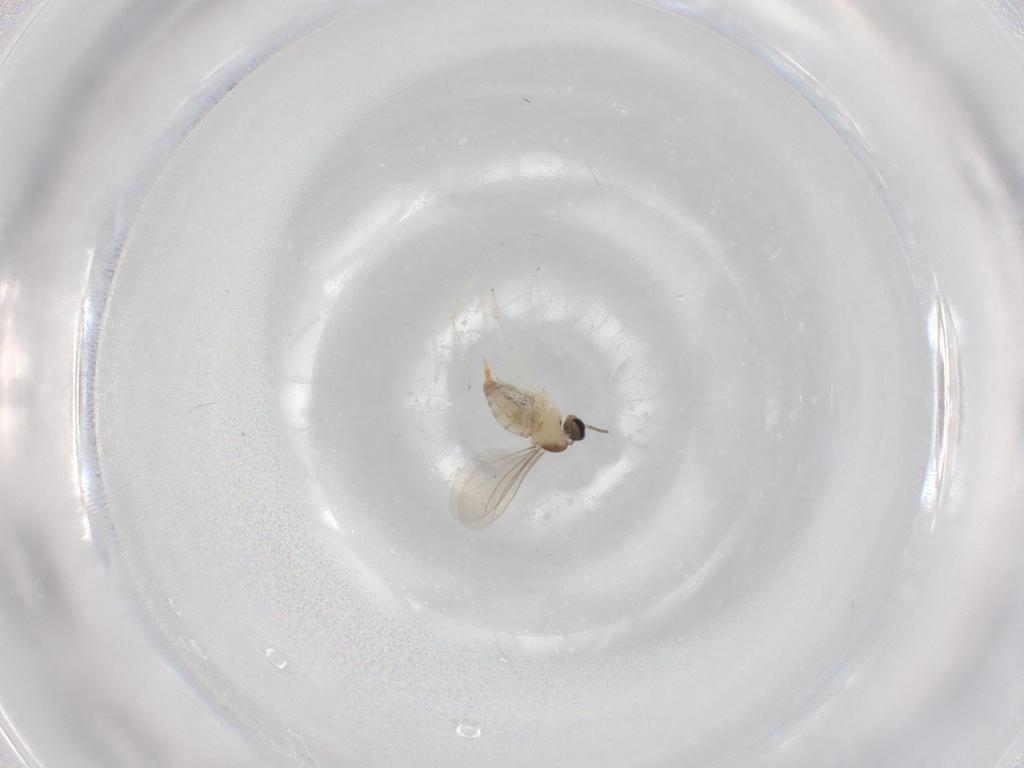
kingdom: Animalia
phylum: Arthropoda
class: Insecta
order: Diptera
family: Cecidomyiidae
